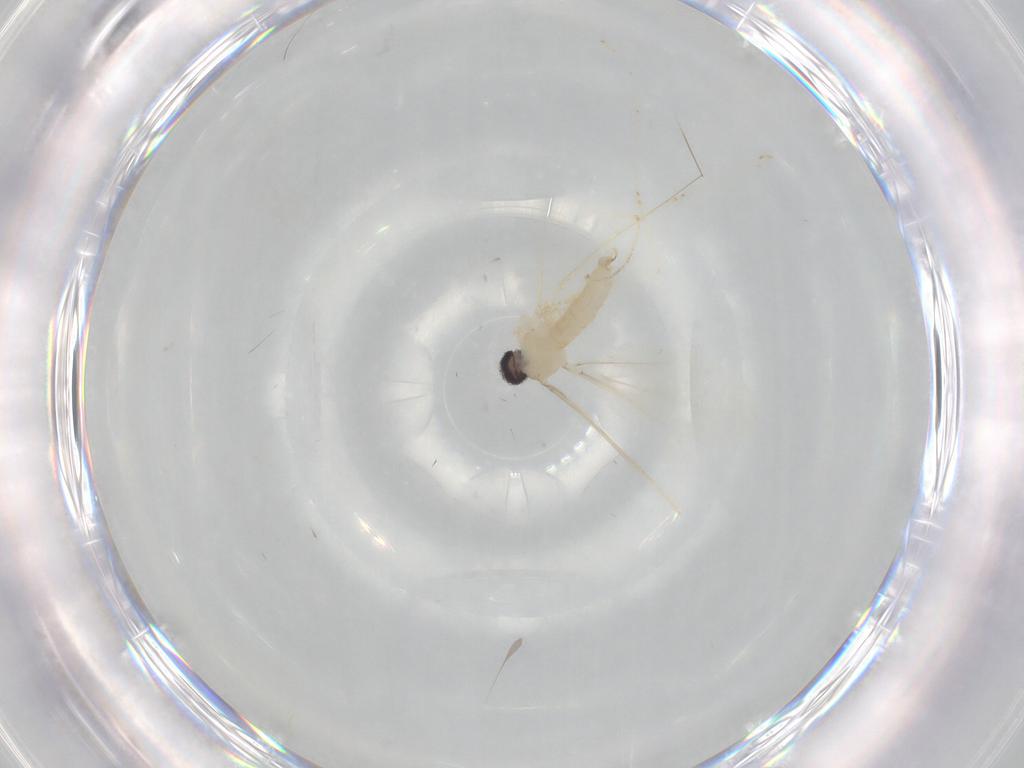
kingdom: Animalia
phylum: Arthropoda
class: Insecta
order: Diptera
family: Cecidomyiidae
